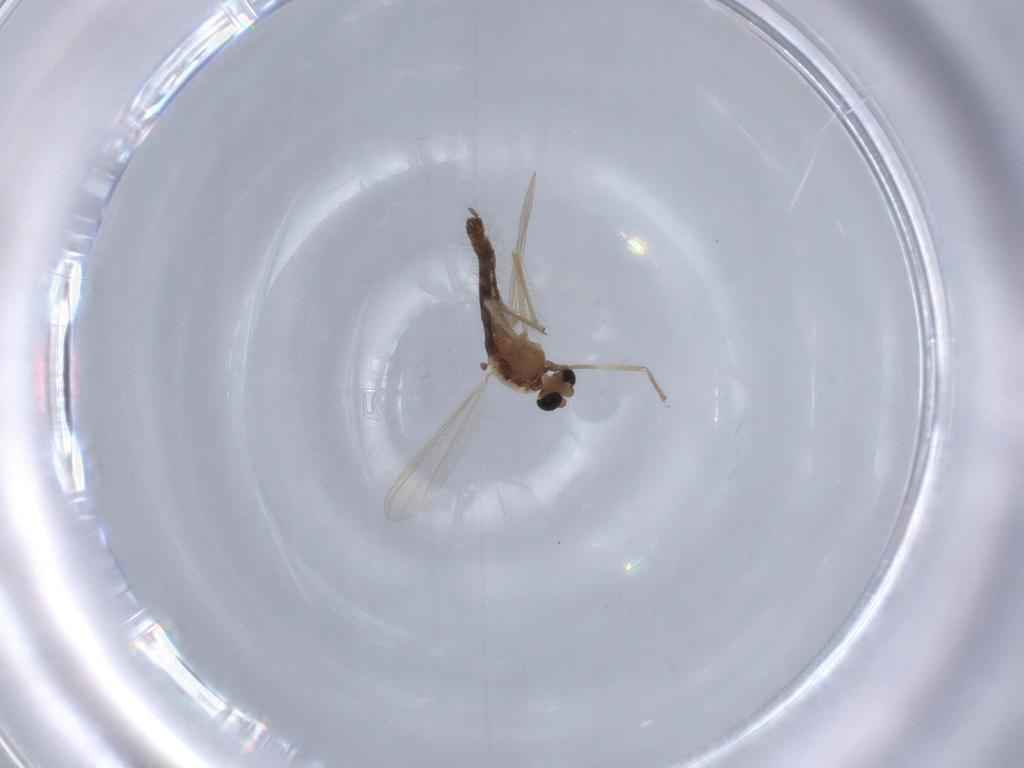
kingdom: Animalia
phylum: Arthropoda
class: Insecta
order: Diptera
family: Chironomidae
